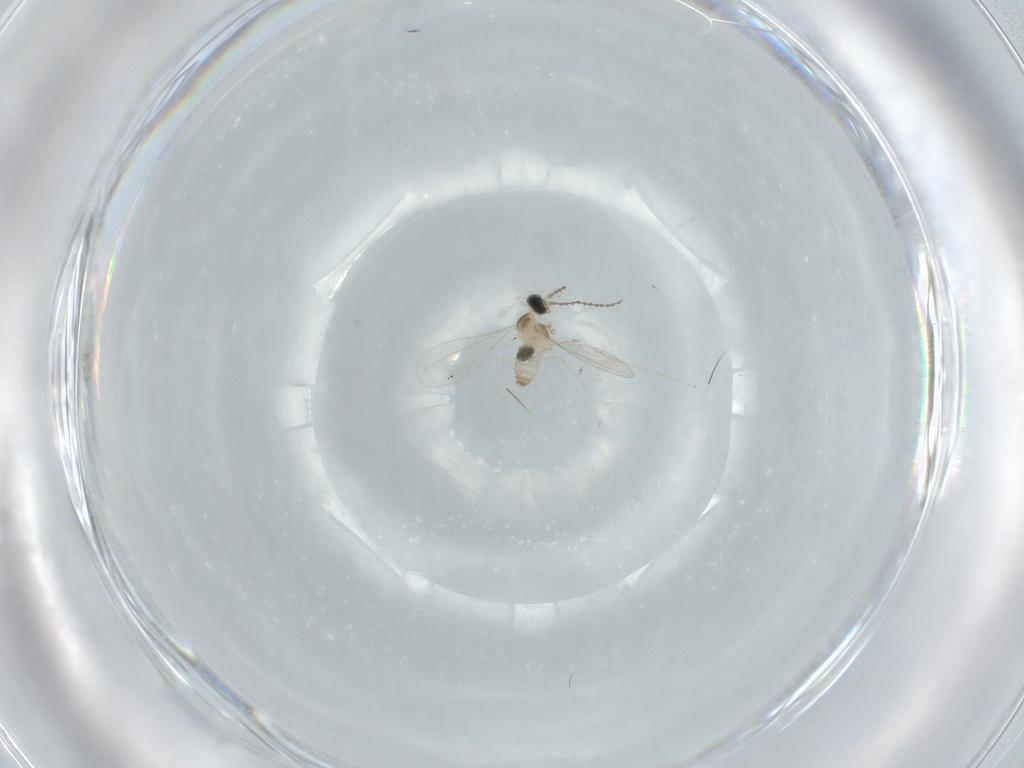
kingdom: Animalia
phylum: Arthropoda
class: Insecta
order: Diptera
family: Cecidomyiidae
